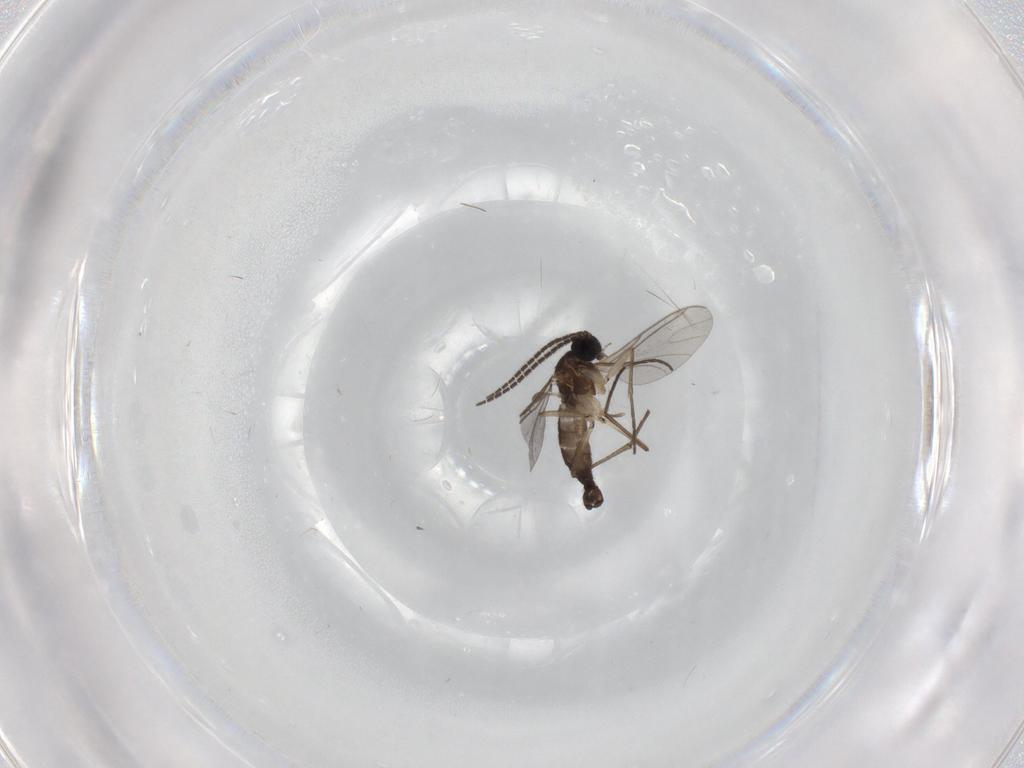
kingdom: Animalia
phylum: Arthropoda
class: Insecta
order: Diptera
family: Sciaridae
